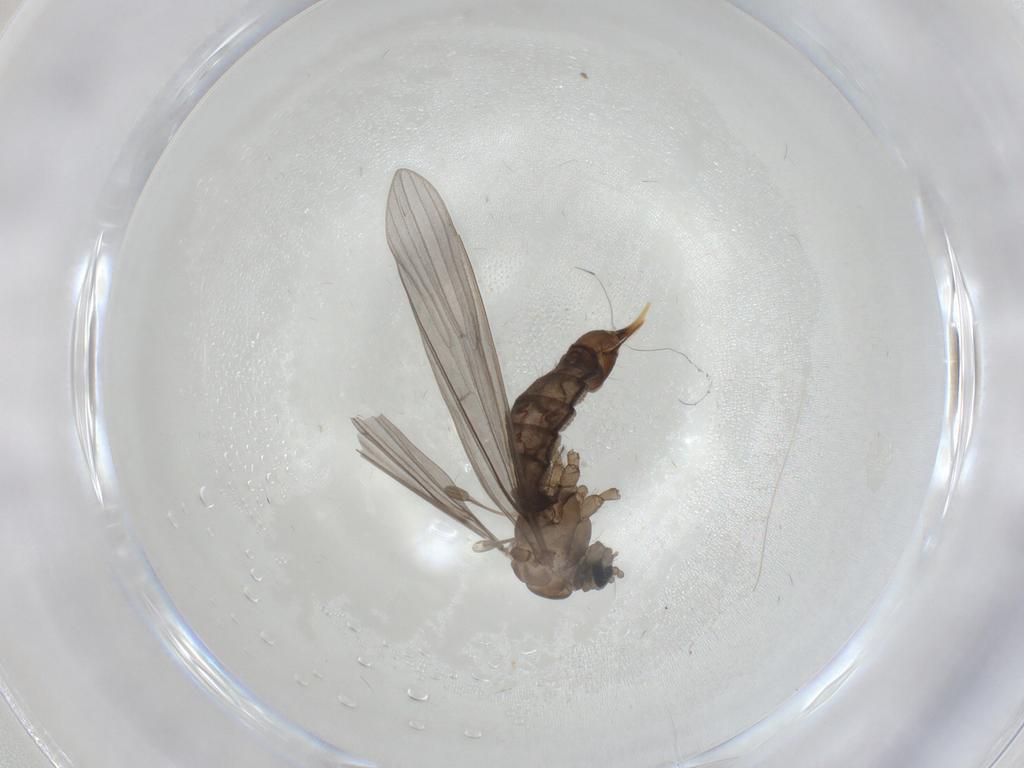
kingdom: Animalia
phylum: Arthropoda
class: Insecta
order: Diptera
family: Limoniidae
